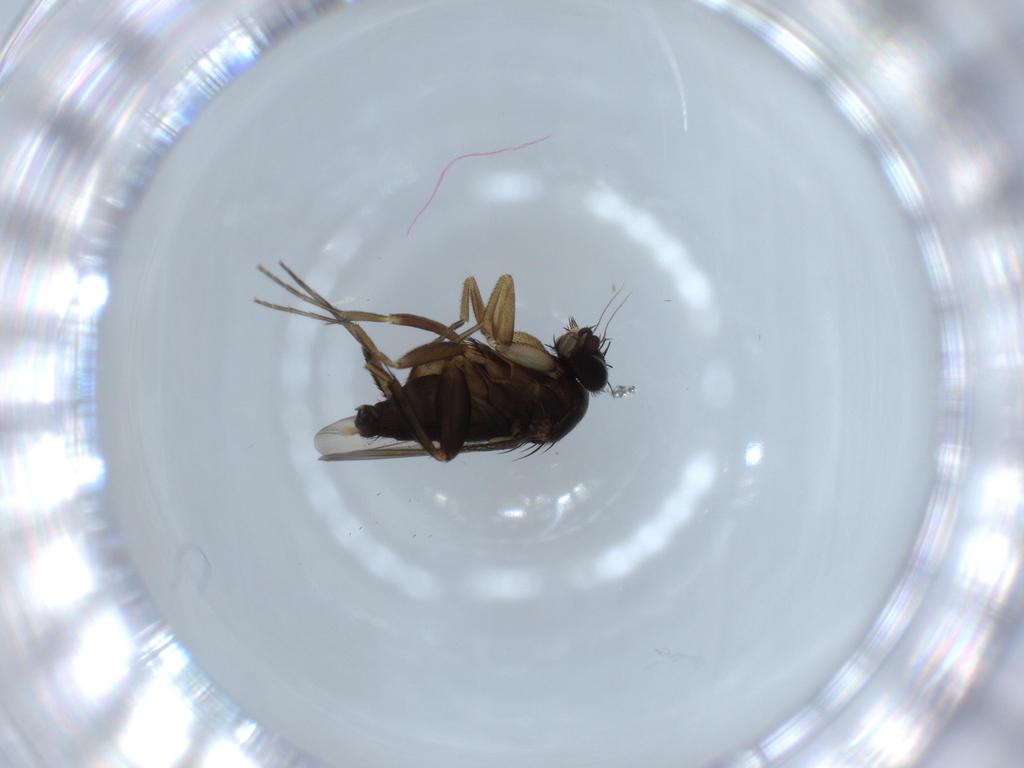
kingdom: Animalia
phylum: Arthropoda
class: Insecta
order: Diptera
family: Phoridae
